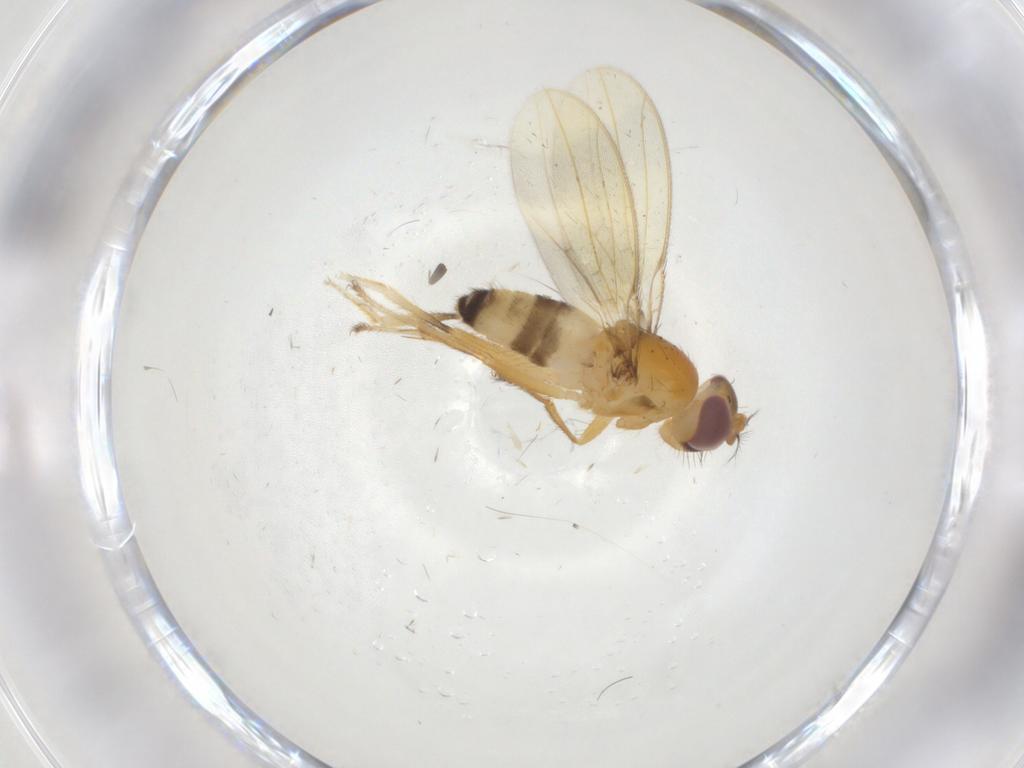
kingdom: Animalia
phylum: Arthropoda
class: Insecta
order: Diptera
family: Periscelididae
